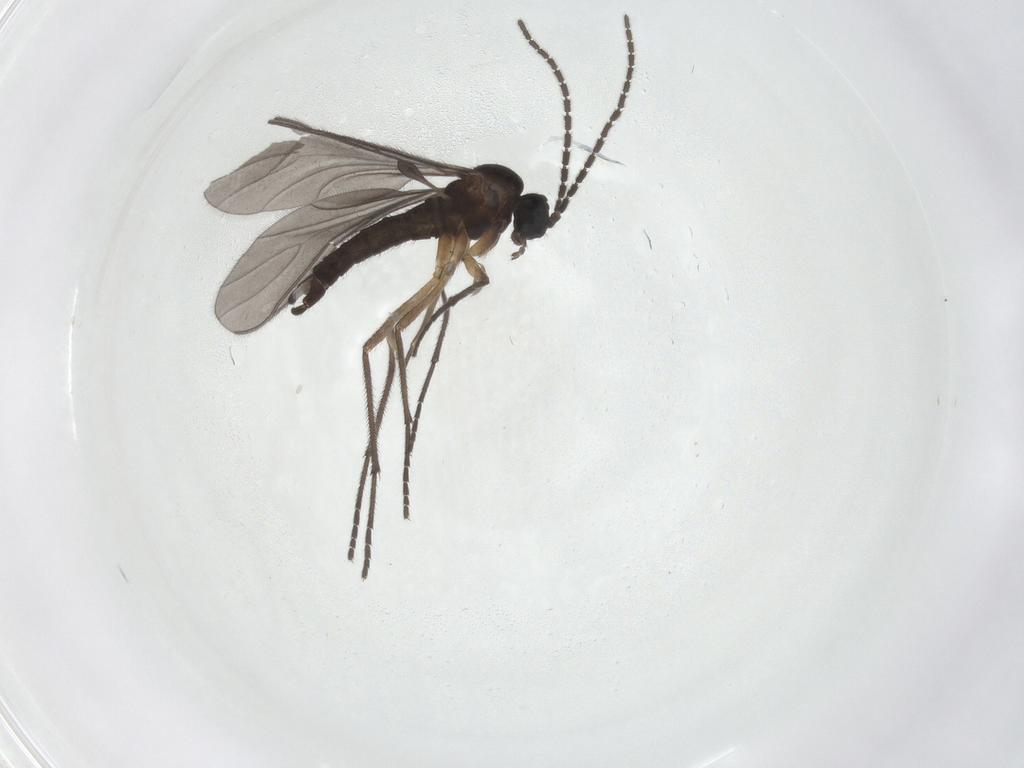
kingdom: Animalia
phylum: Arthropoda
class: Insecta
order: Diptera
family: Sciaridae
